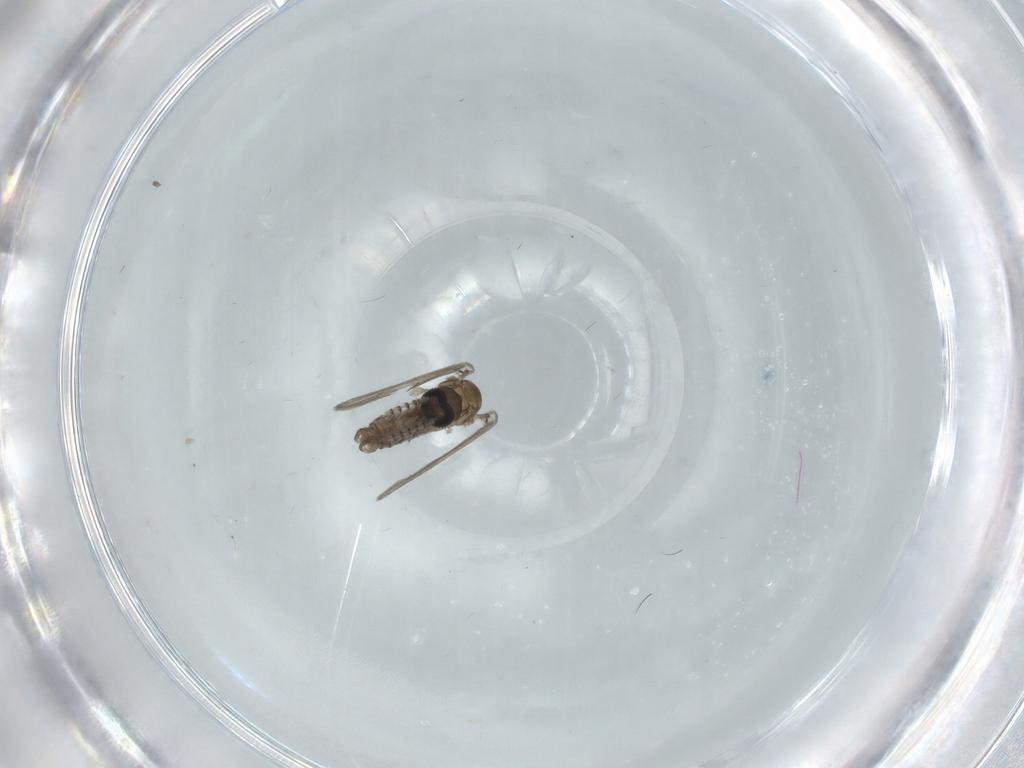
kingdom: Animalia
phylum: Arthropoda
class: Insecta
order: Diptera
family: Psychodidae
